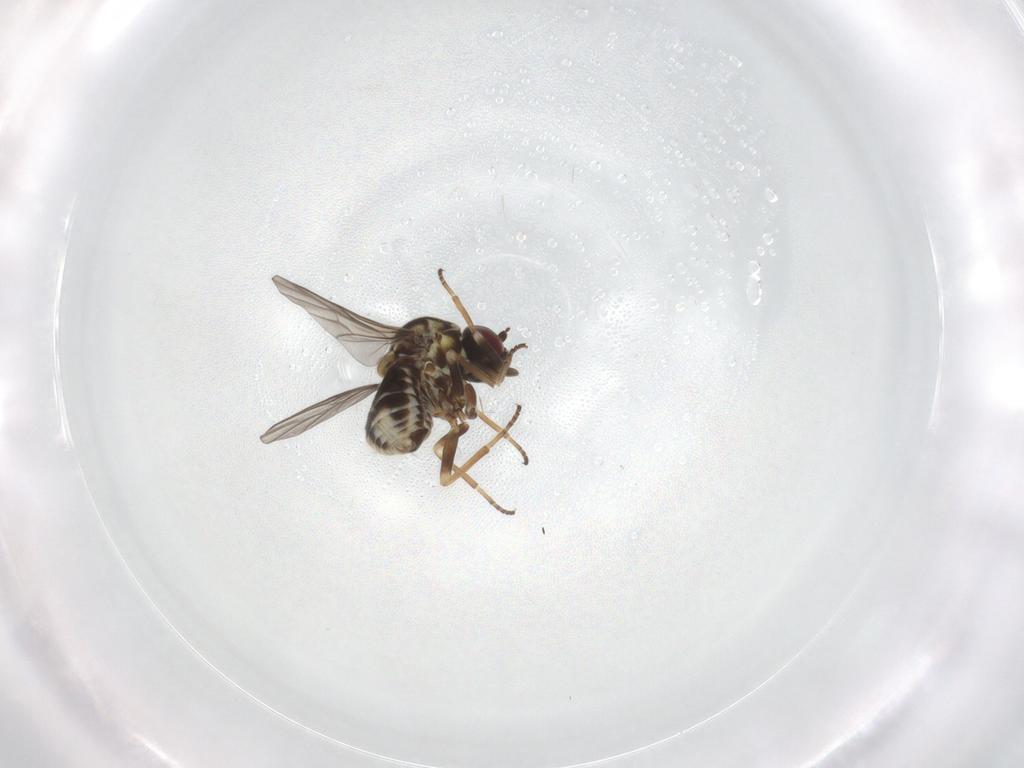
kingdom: Animalia
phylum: Arthropoda
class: Insecta
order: Diptera
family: Bombyliidae
